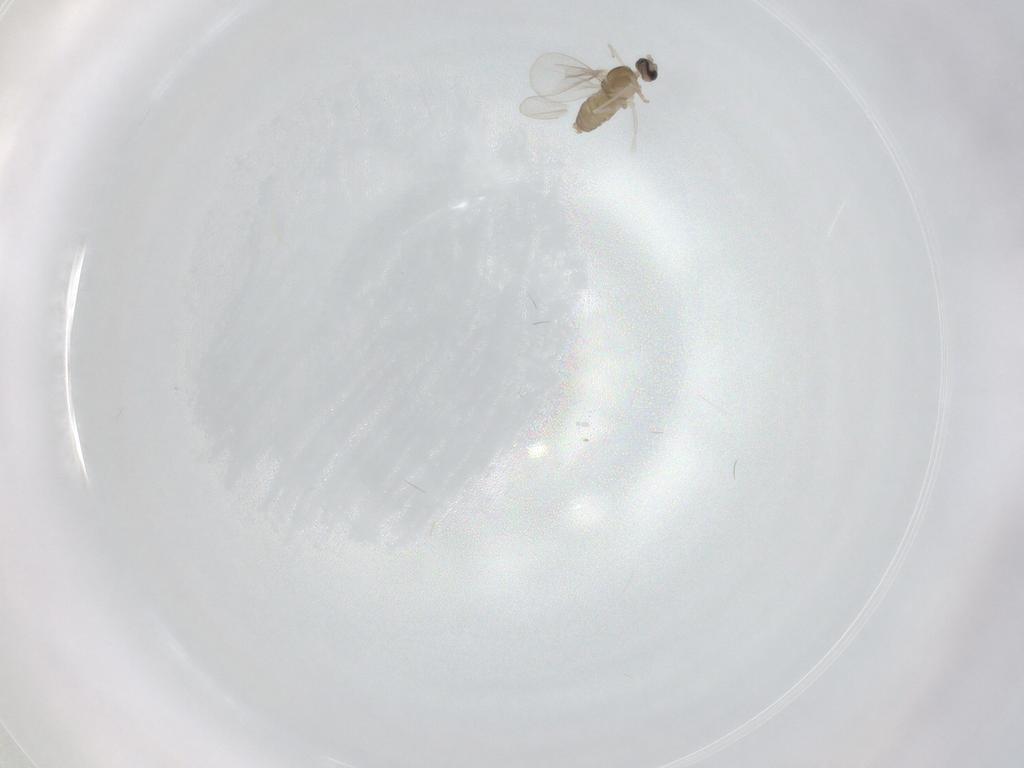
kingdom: Animalia
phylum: Arthropoda
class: Insecta
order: Diptera
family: Cecidomyiidae
